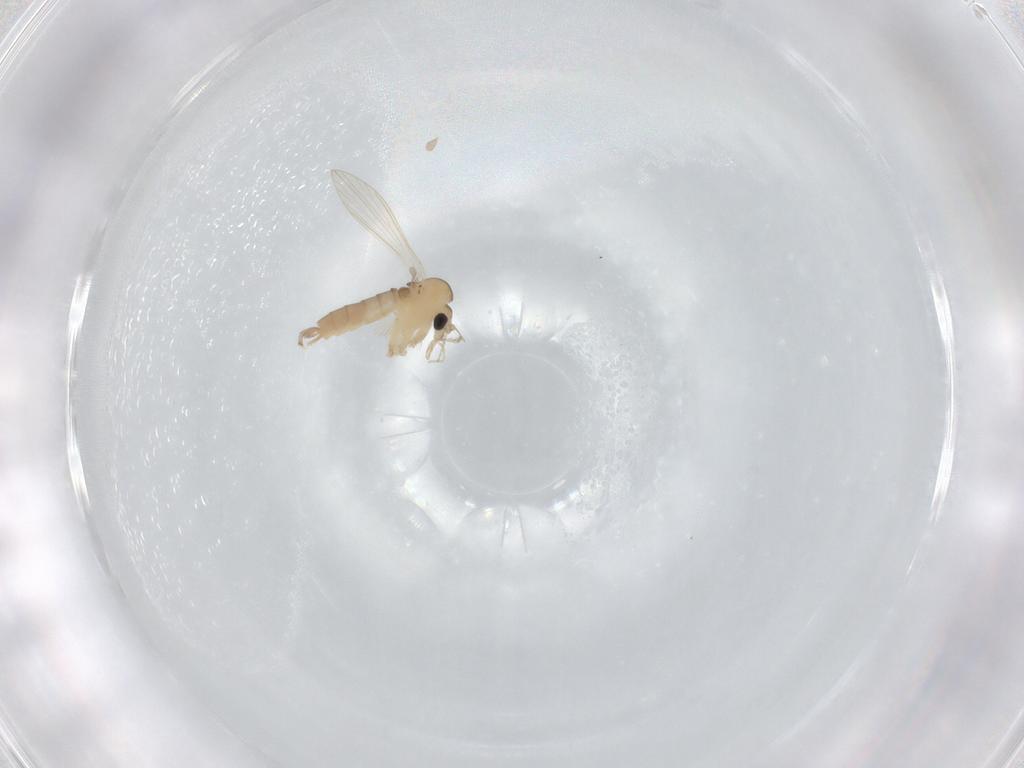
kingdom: Animalia
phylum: Arthropoda
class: Insecta
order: Diptera
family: Psychodidae
